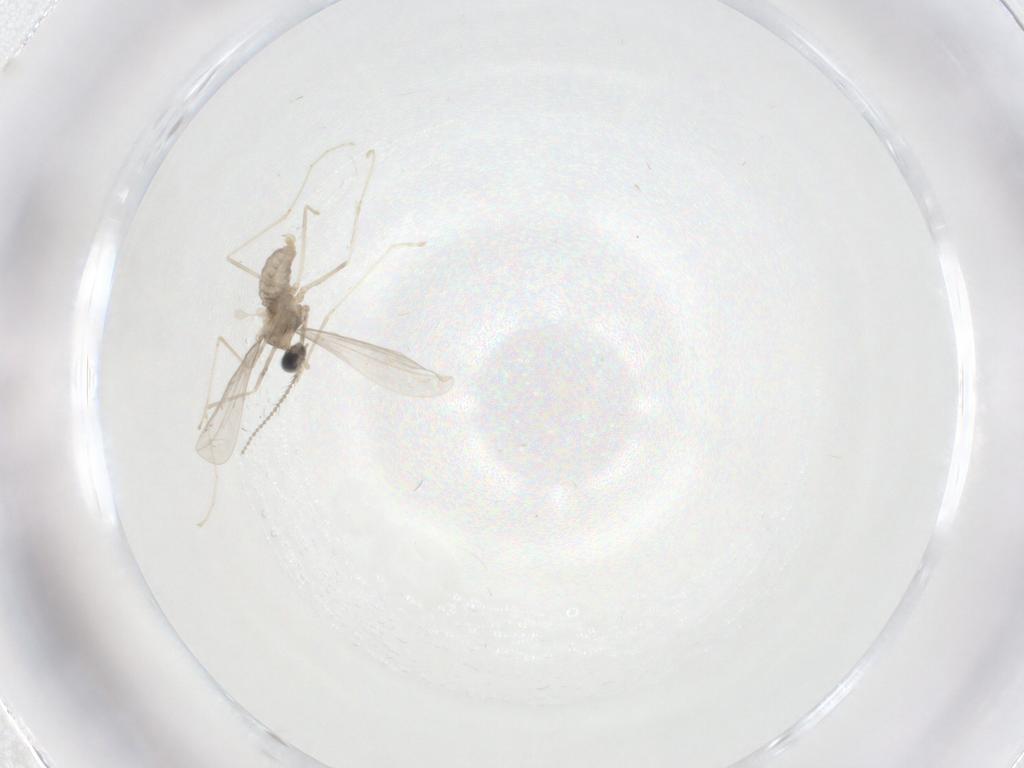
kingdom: Animalia
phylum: Arthropoda
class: Insecta
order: Diptera
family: Cecidomyiidae
